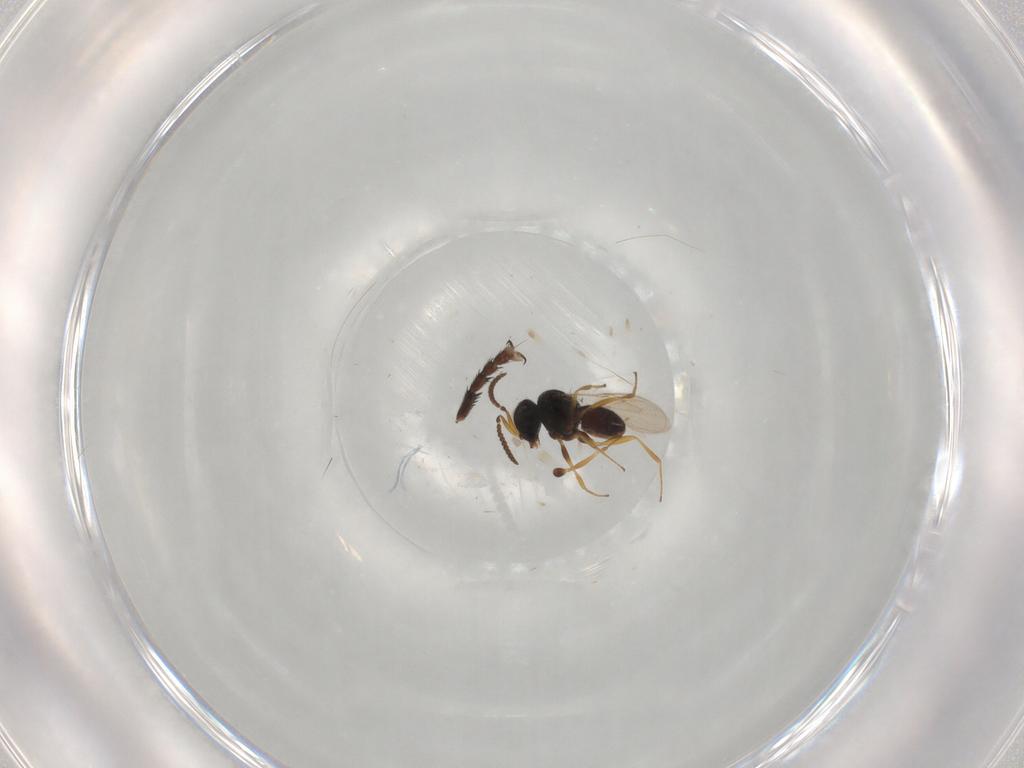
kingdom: Animalia
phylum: Arthropoda
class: Insecta
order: Hymenoptera
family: Scelionidae
